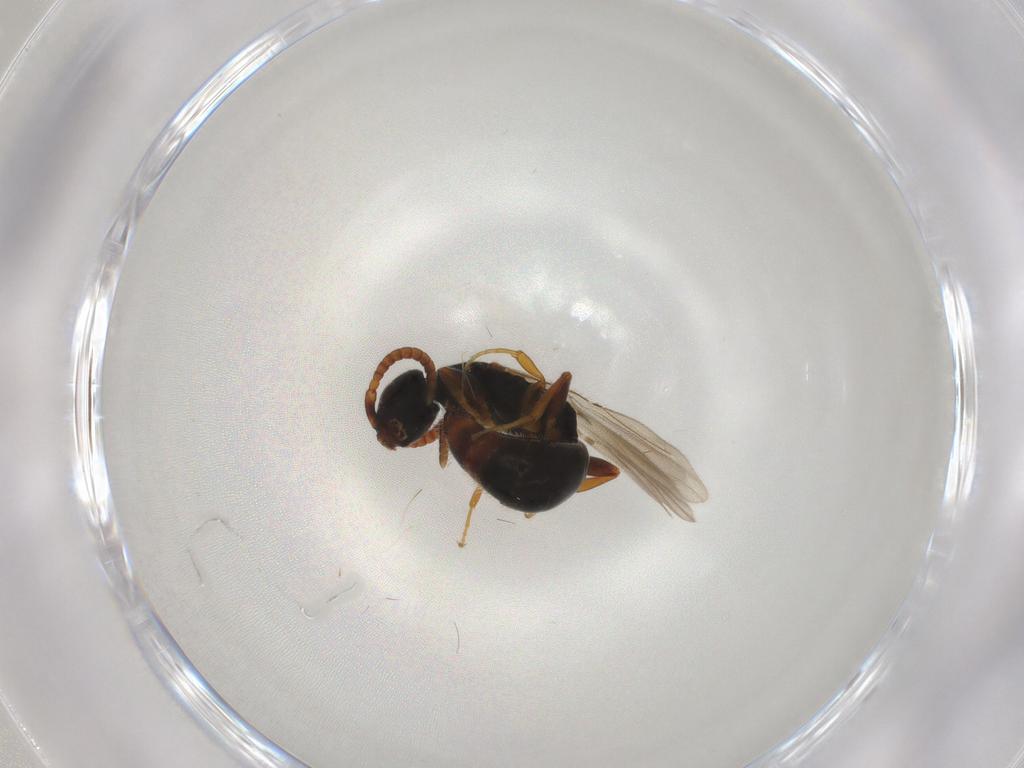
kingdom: Animalia
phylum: Arthropoda
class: Insecta
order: Hymenoptera
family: Bethylidae
